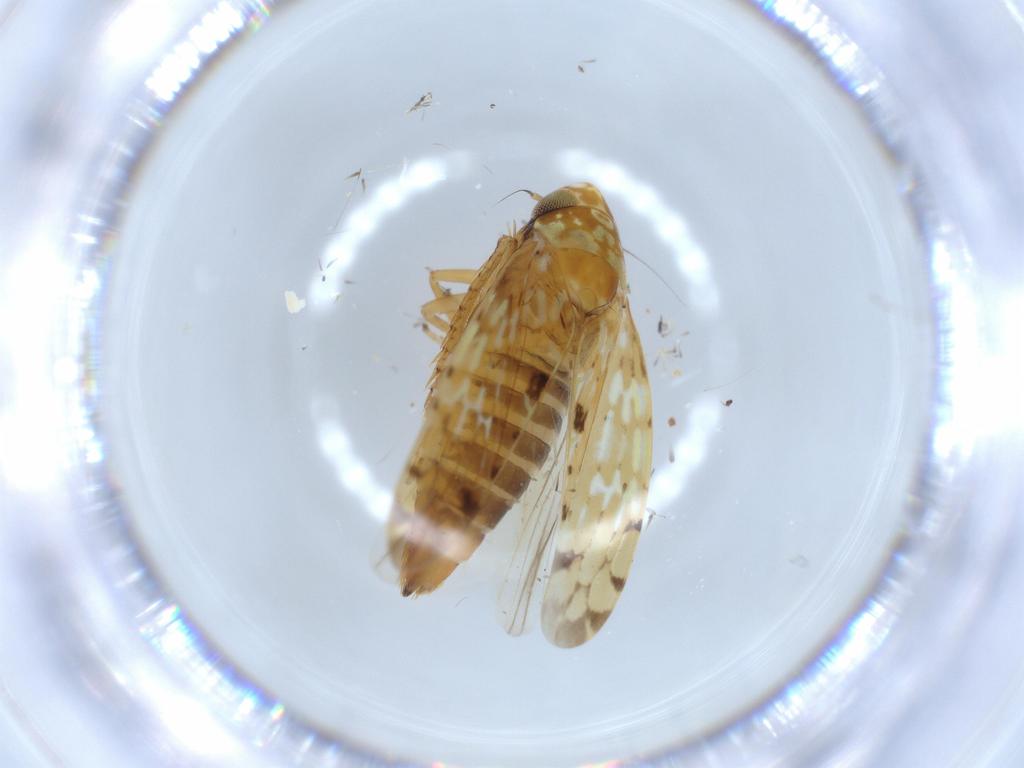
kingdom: Animalia
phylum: Arthropoda
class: Insecta
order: Hemiptera
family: Cicadellidae
